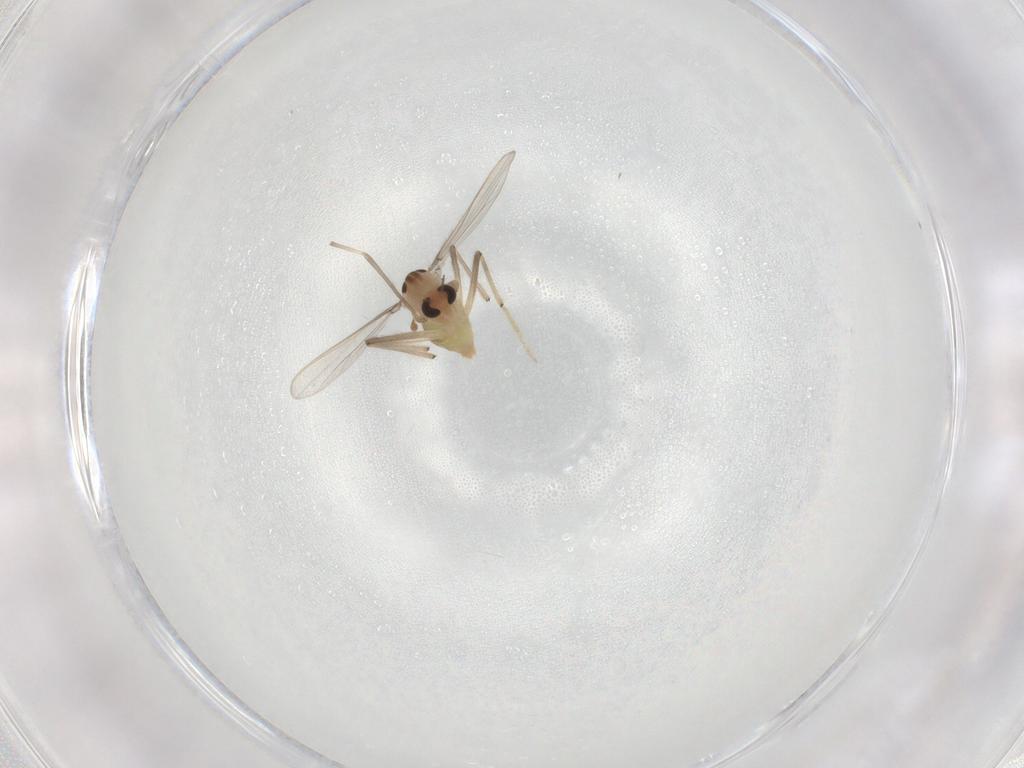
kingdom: Animalia
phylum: Arthropoda
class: Insecta
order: Diptera
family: Chironomidae
